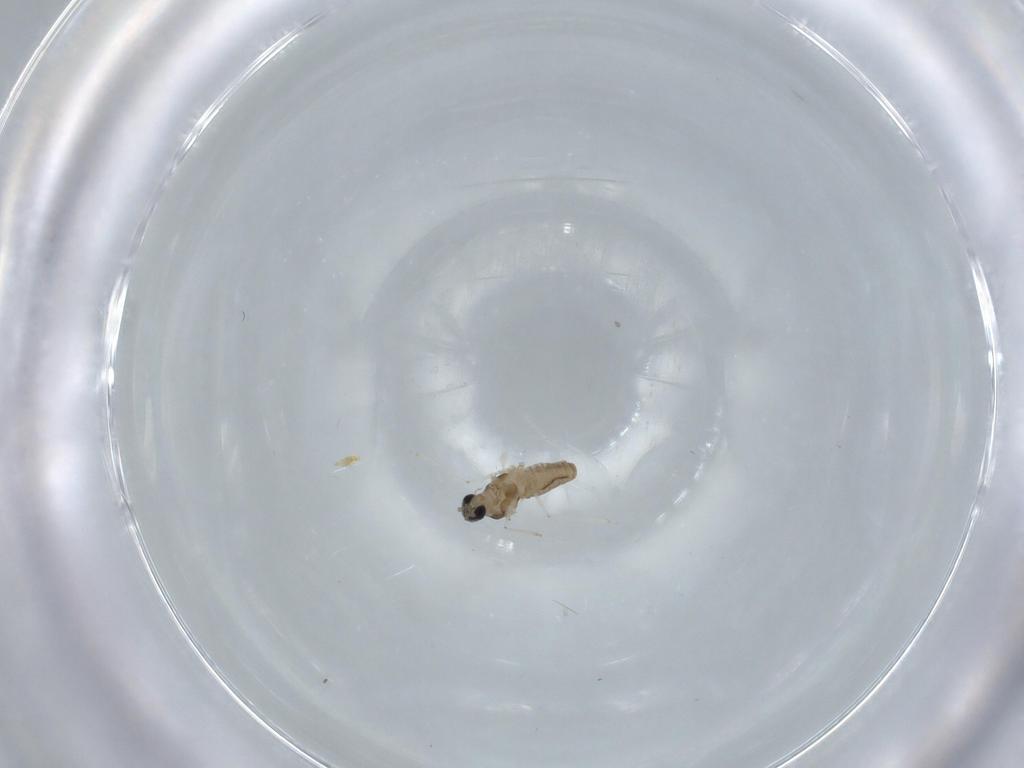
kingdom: Animalia
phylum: Arthropoda
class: Insecta
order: Diptera
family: Cecidomyiidae
